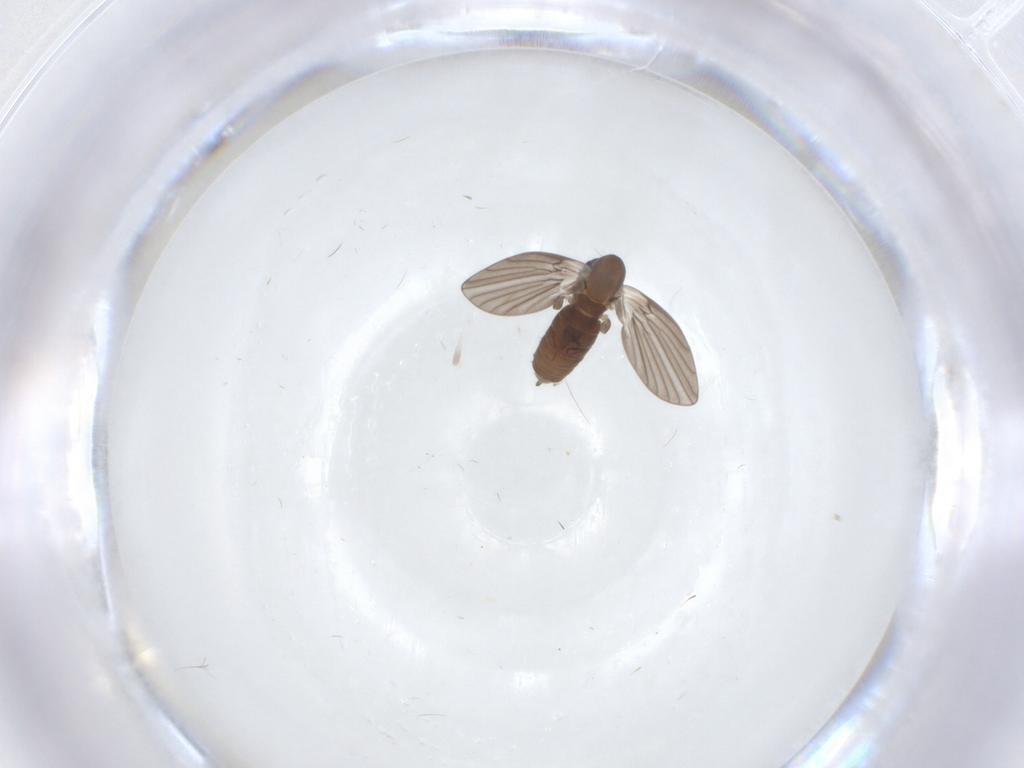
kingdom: Animalia
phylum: Arthropoda
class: Insecta
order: Diptera
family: Psychodidae
